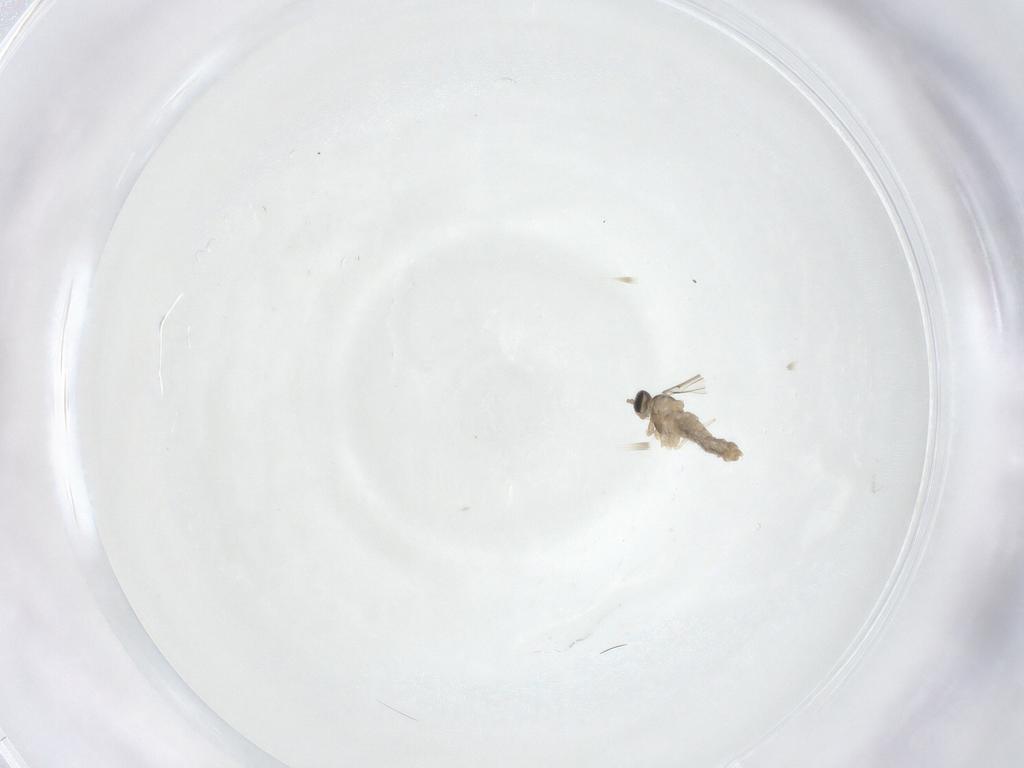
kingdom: Animalia
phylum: Arthropoda
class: Insecta
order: Diptera
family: Cecidomyiidae
